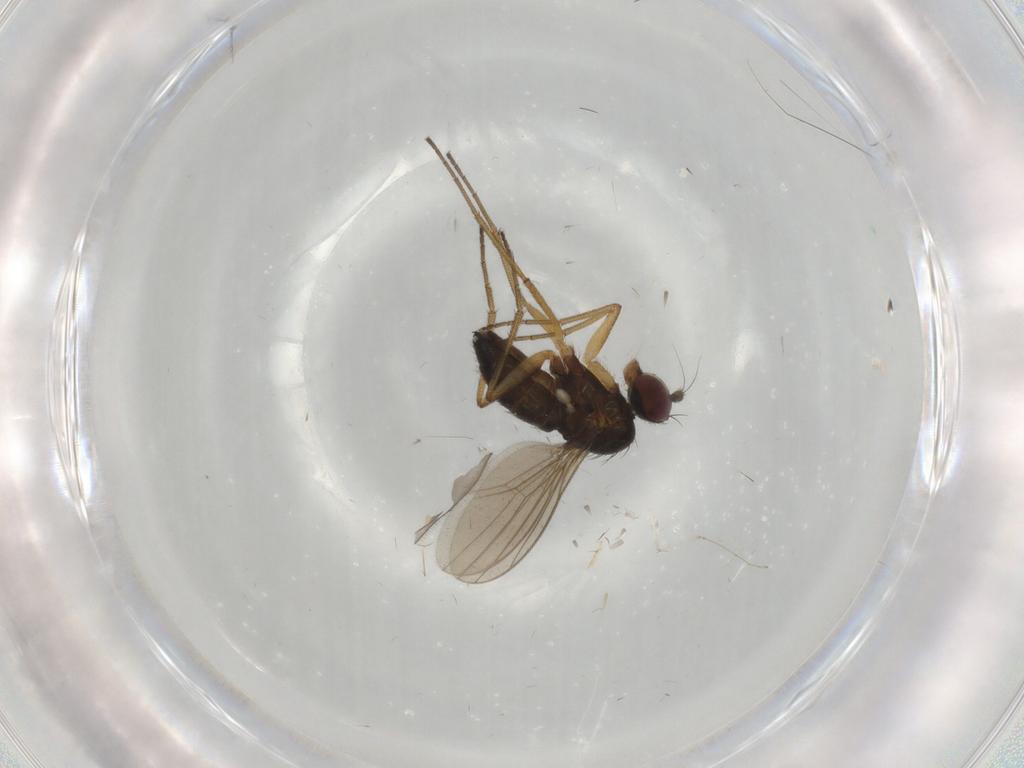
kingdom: Animalia
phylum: Arthropoda
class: Insecta
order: Diptera
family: Dolichopodidae
